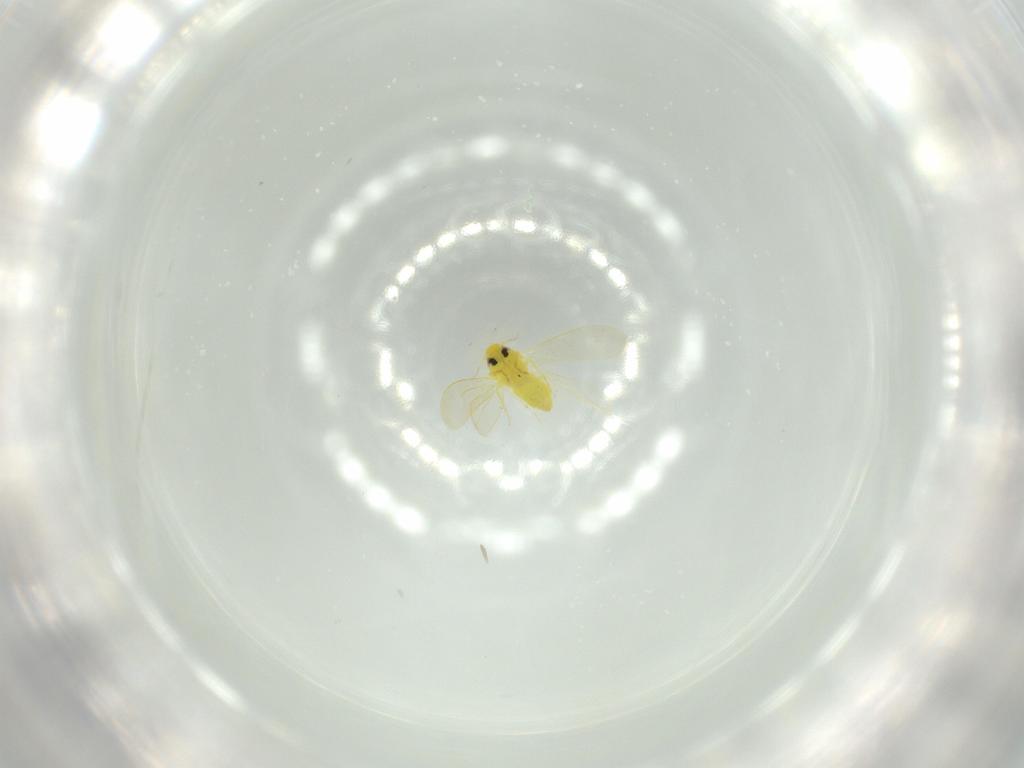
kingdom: Animalia
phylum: Arthropoda
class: Insecta
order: Hemiptera
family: Aleyrodidae
